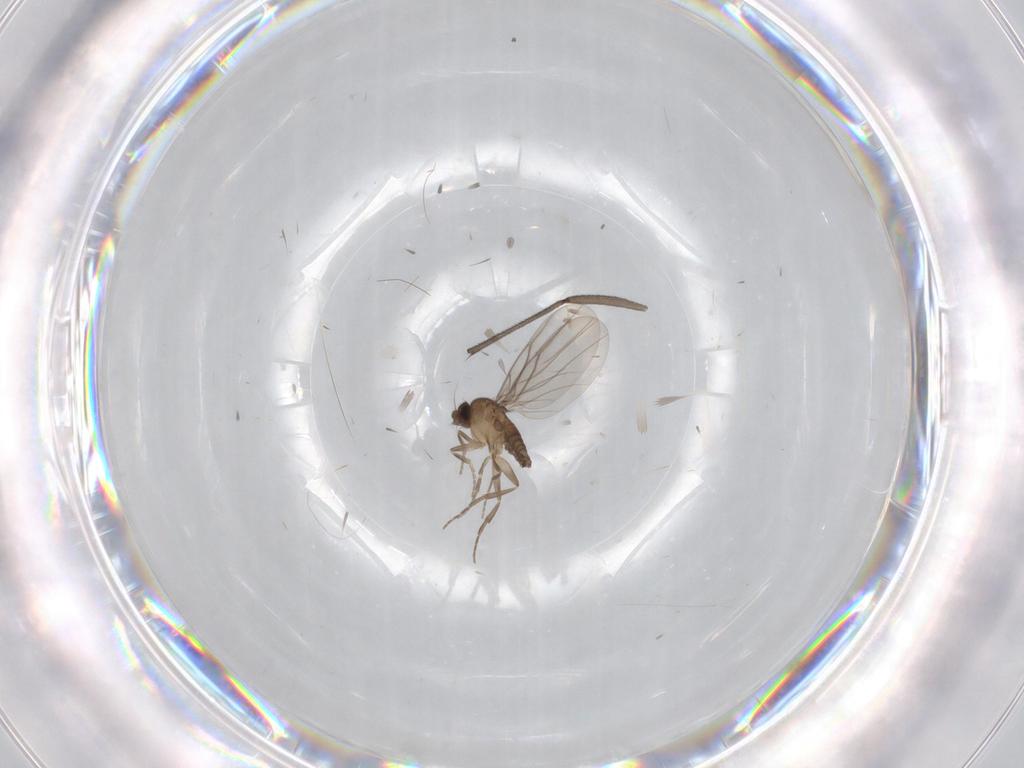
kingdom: Animalia
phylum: Arthropoda
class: Insecta
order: Diptera
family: Sciaridae
